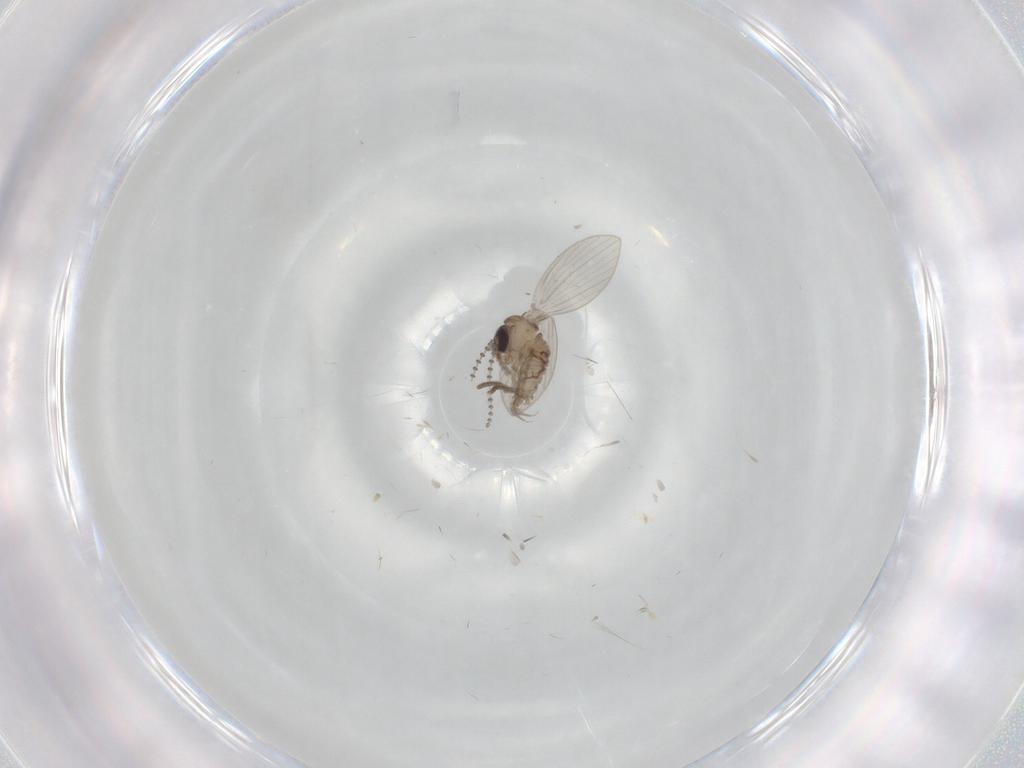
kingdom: Animalia
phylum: Arthropoda
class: Insecta
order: Diptera
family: Psychodidae
